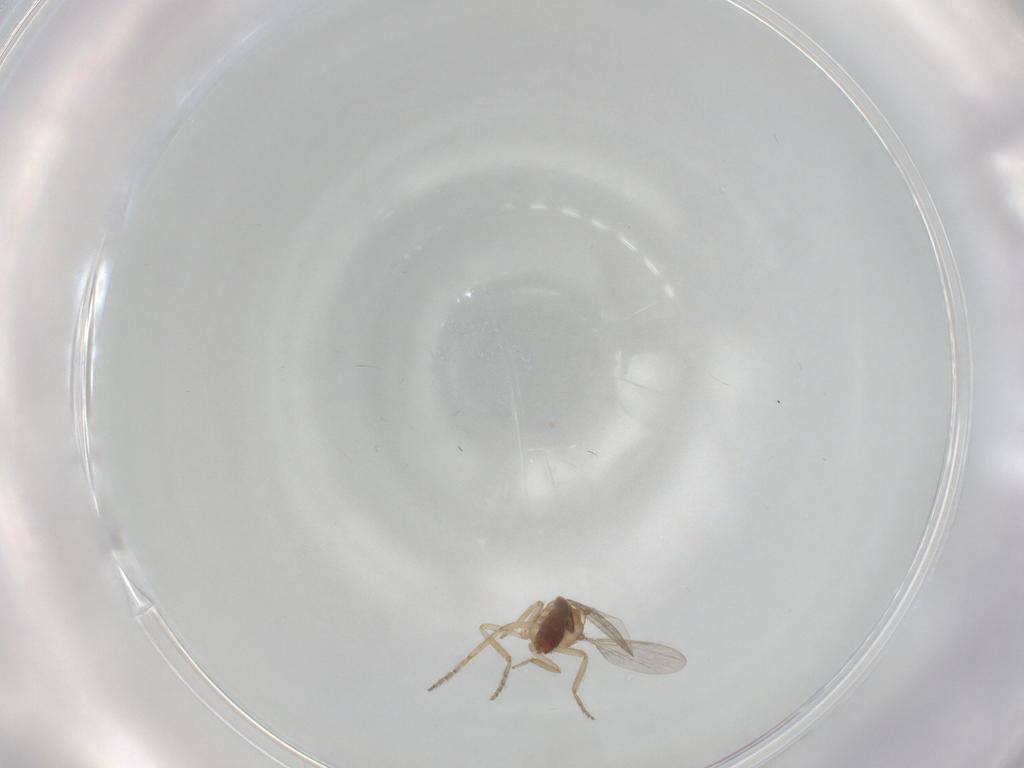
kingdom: Animalia
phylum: Arthropoda
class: Insecta
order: Diptera
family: Ceratopogonidae
